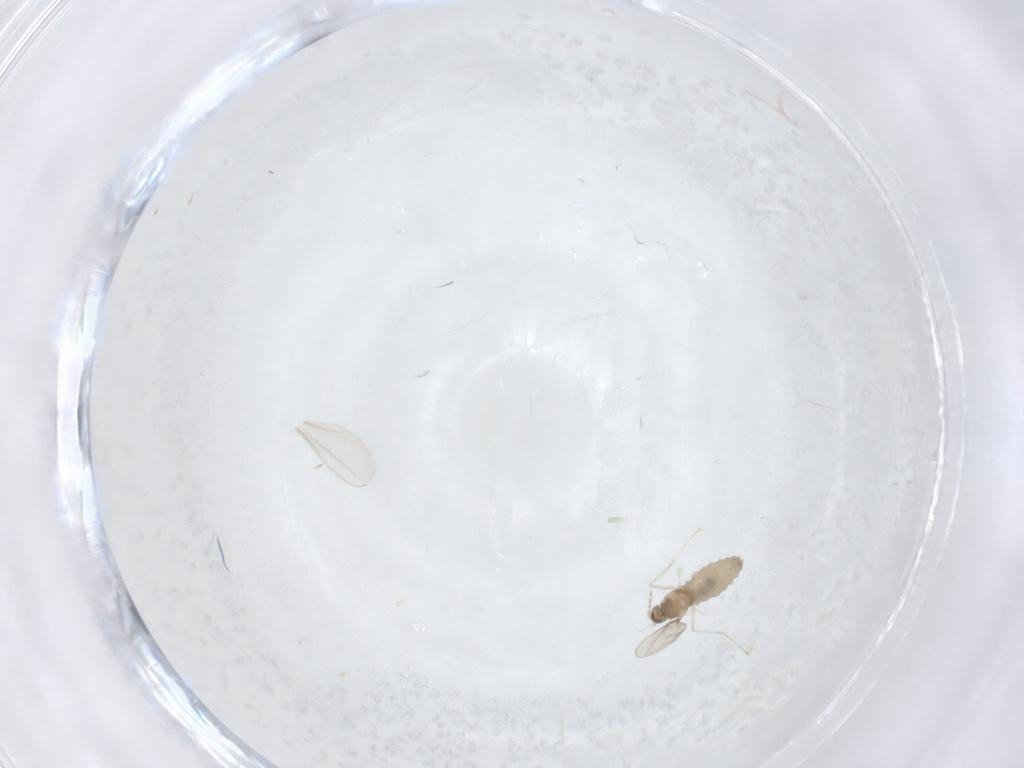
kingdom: Animalia
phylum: Arthropoda
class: Insecta
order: Diptera
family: Cecidomyiidae
